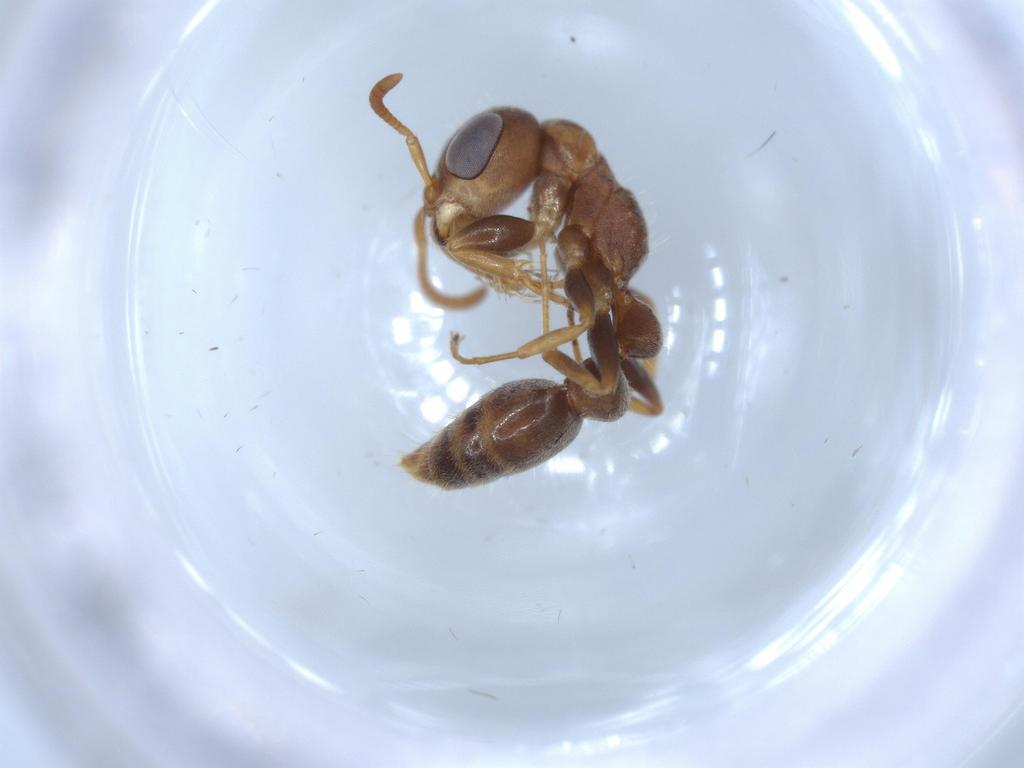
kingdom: Animalia
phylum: Arthropoda
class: Insecta
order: Hymenoptera
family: Formicidae
